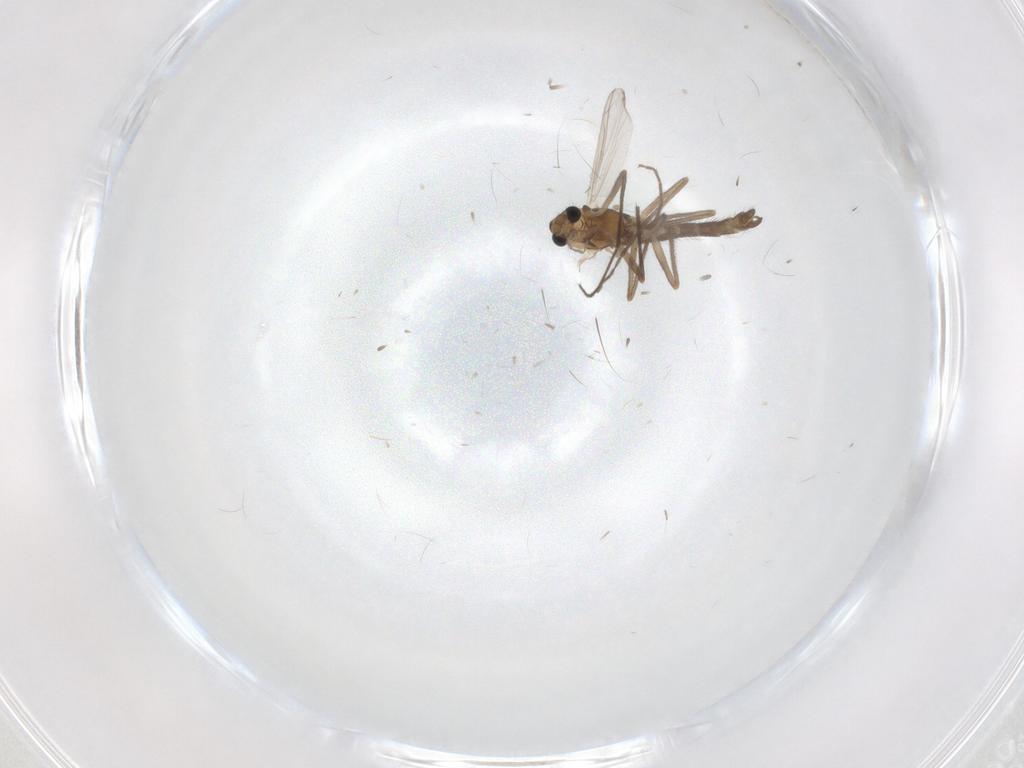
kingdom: Animalia
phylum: Arthropoda
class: Insecta
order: Diptera
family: Chironomidae
